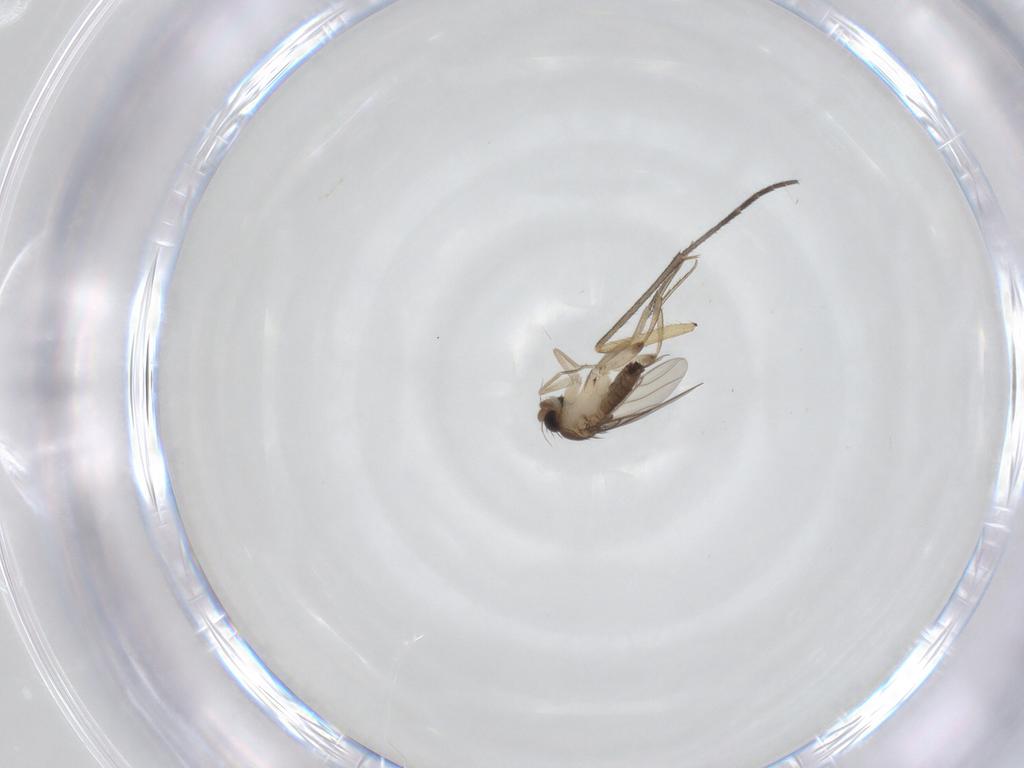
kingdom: Animalia
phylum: Arthropoda
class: Insecta
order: Diptera
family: Sciaridae
